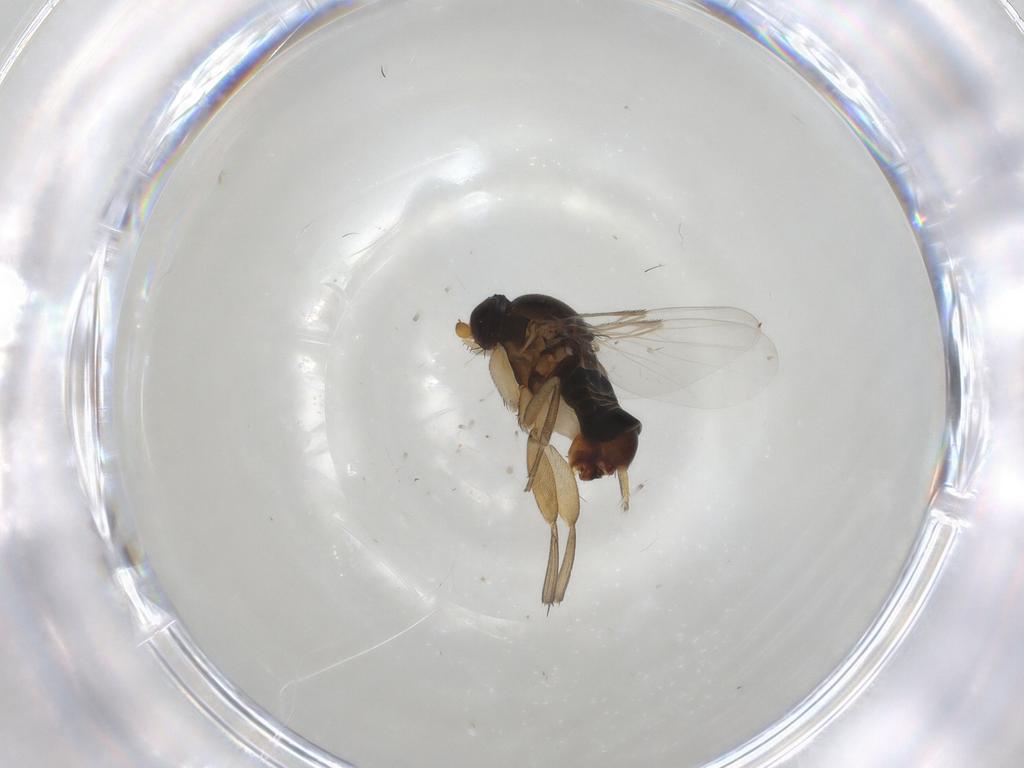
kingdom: Animalia
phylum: Arthropoda
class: Insecta
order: Diptera
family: Phoridae
